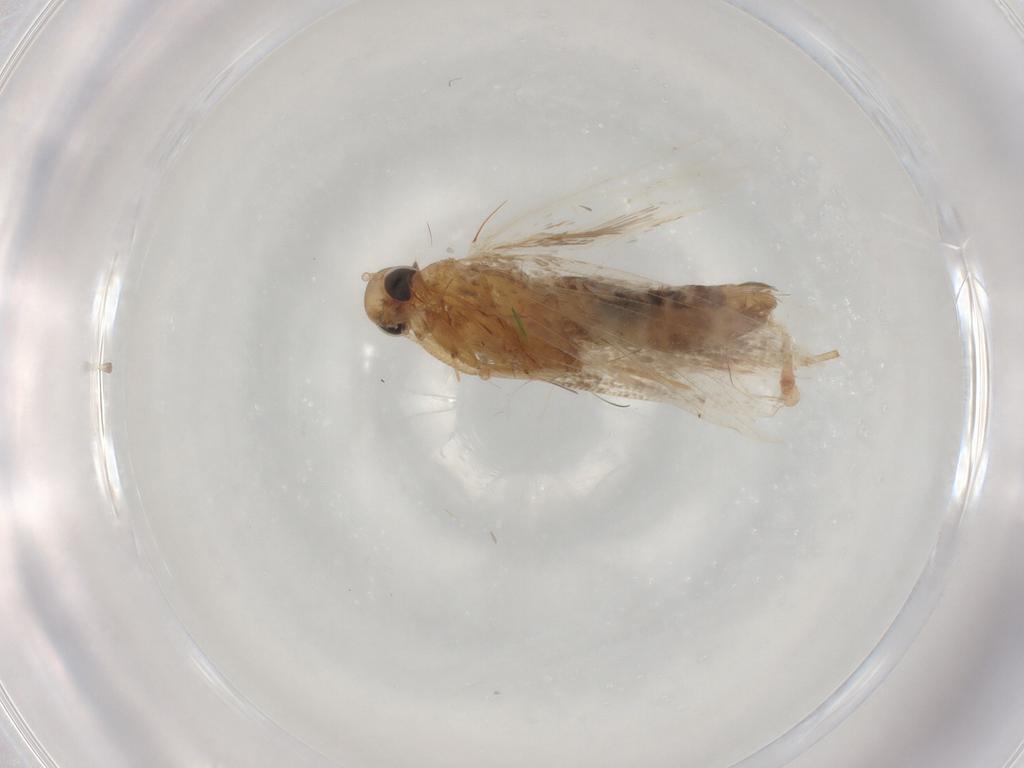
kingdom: Animalia
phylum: Arthropoda
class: Insecta
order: Lepidoptera
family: Gelechiidae
